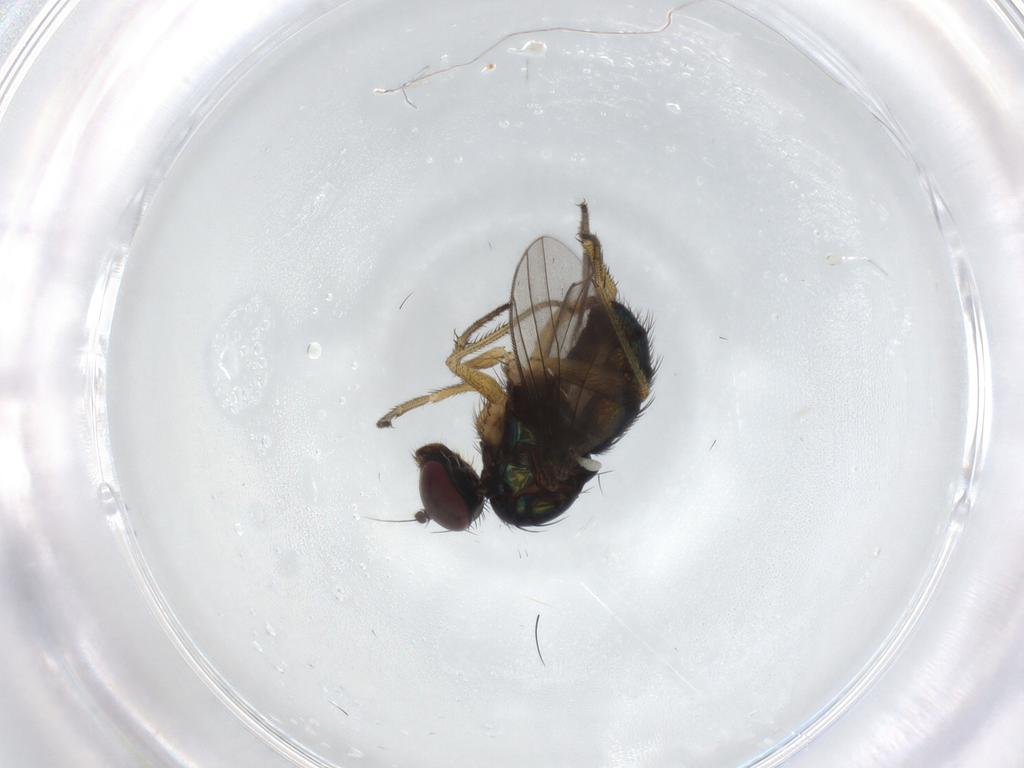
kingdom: Animalia
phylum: Arthropoda
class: Insecta
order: Diptera
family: Dolichopodidae
